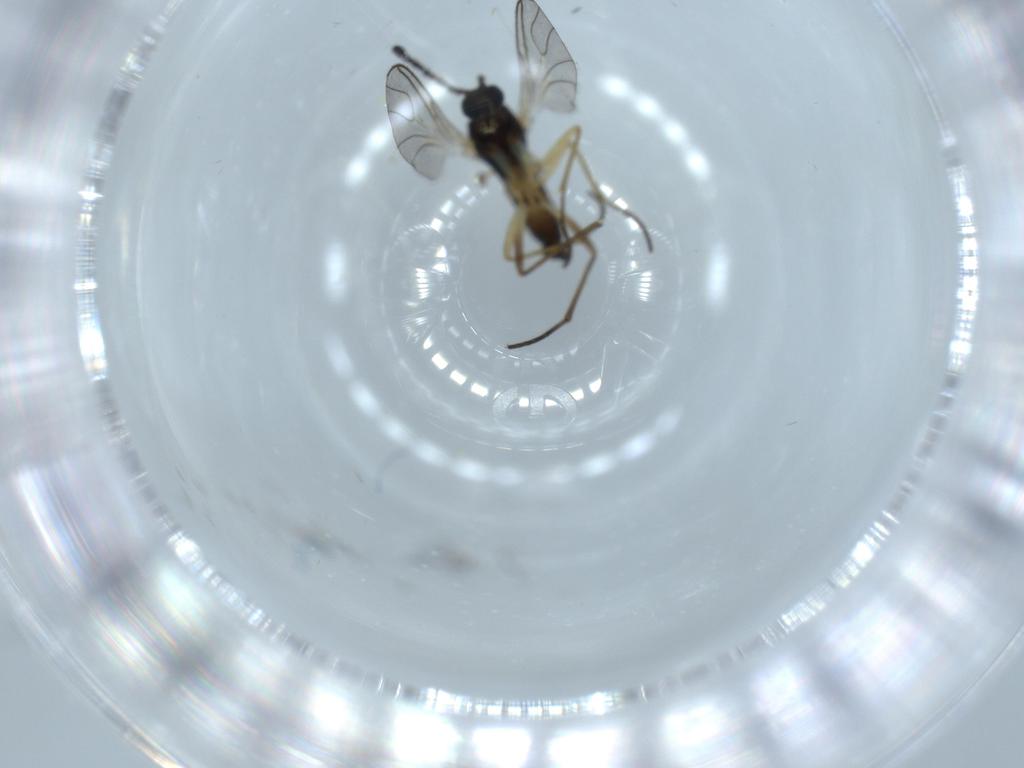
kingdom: Animalia
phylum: Arthropoda
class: Insecta
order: Diptera
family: Sciaridae
